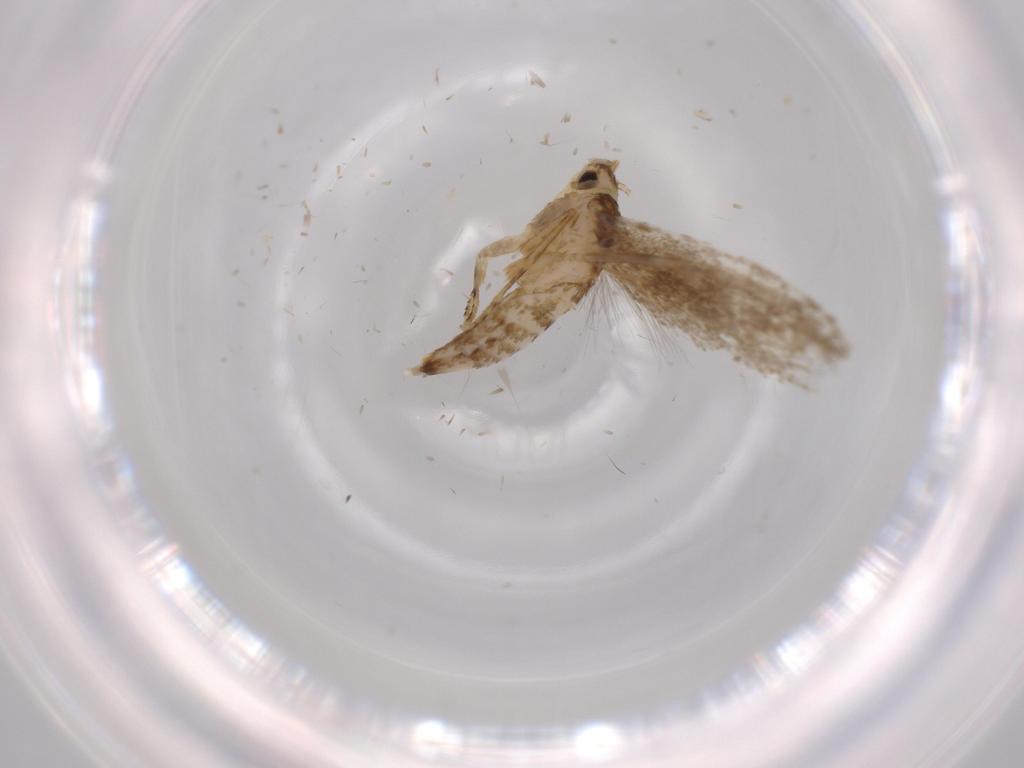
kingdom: Animalia
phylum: Arthropoda
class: Insecta
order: Lepidoptera
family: Tineidae
